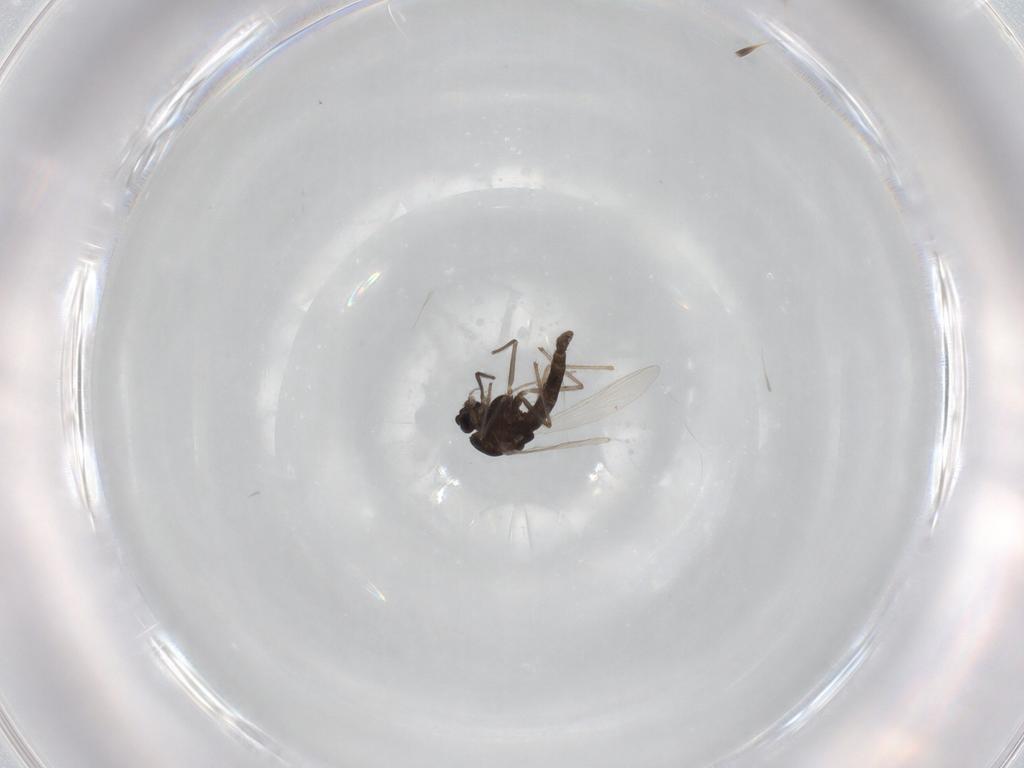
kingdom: Animalia
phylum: Arthropoda
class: Insecta
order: Diptera
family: Chironomidae
